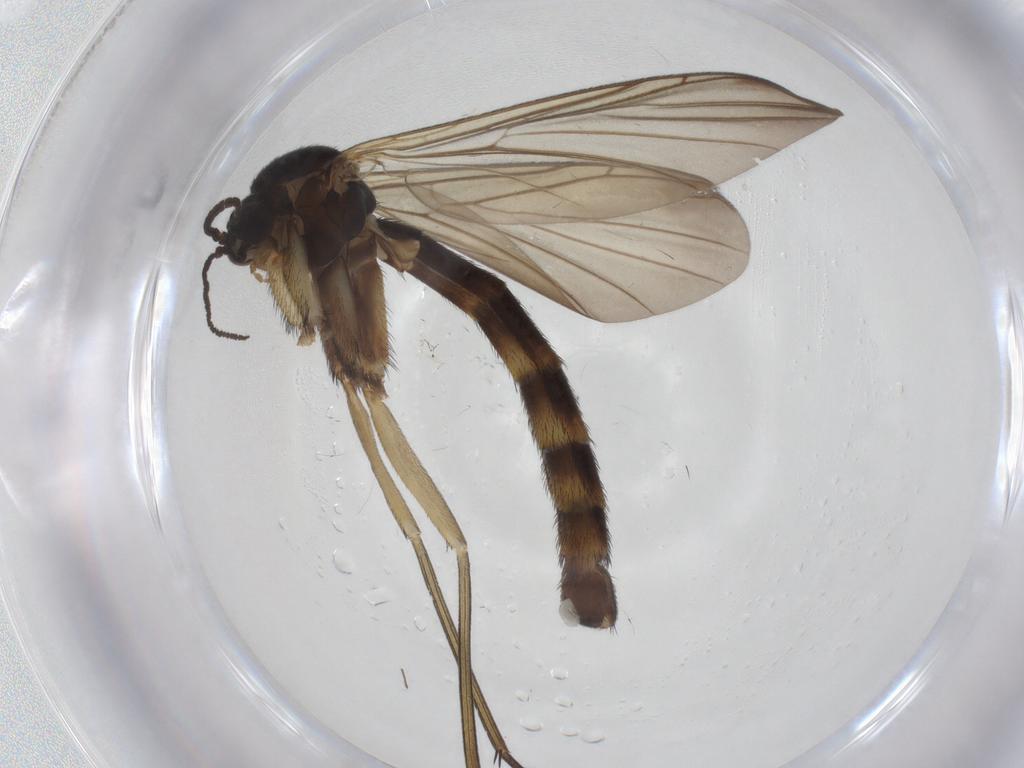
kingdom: Animalia
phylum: Arthropoda
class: Insecta
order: Diptera
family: Keroplatidae
